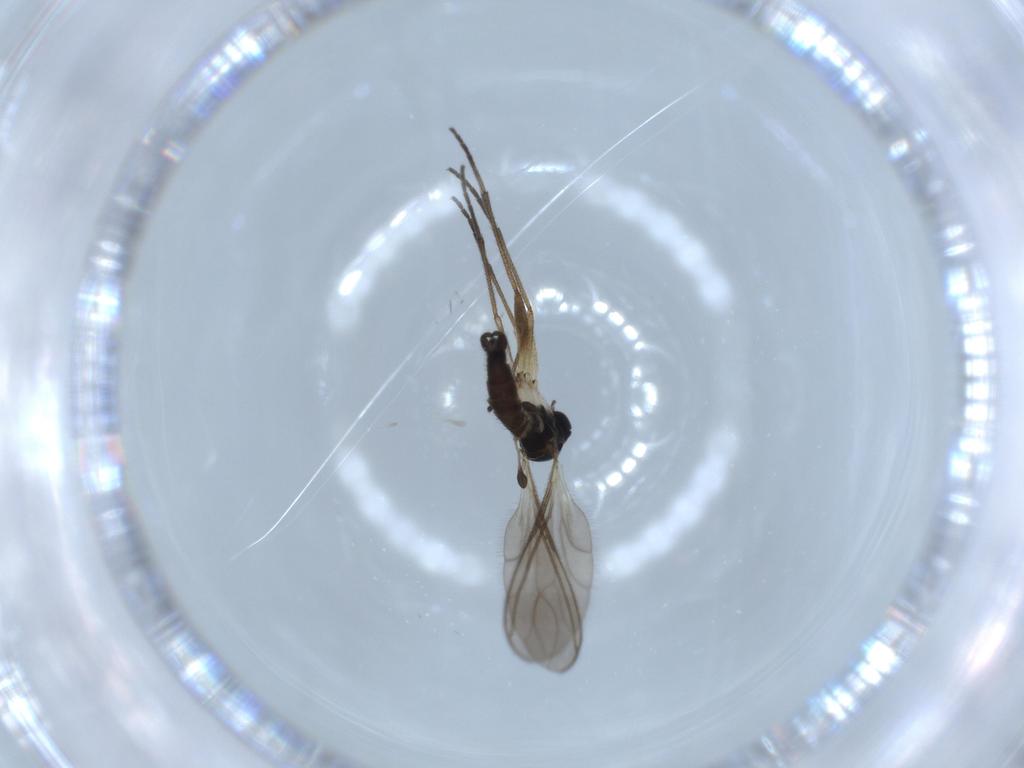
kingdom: Animalia
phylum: Arthropoda
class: Insecta
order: Diptera
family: Sciaridae
